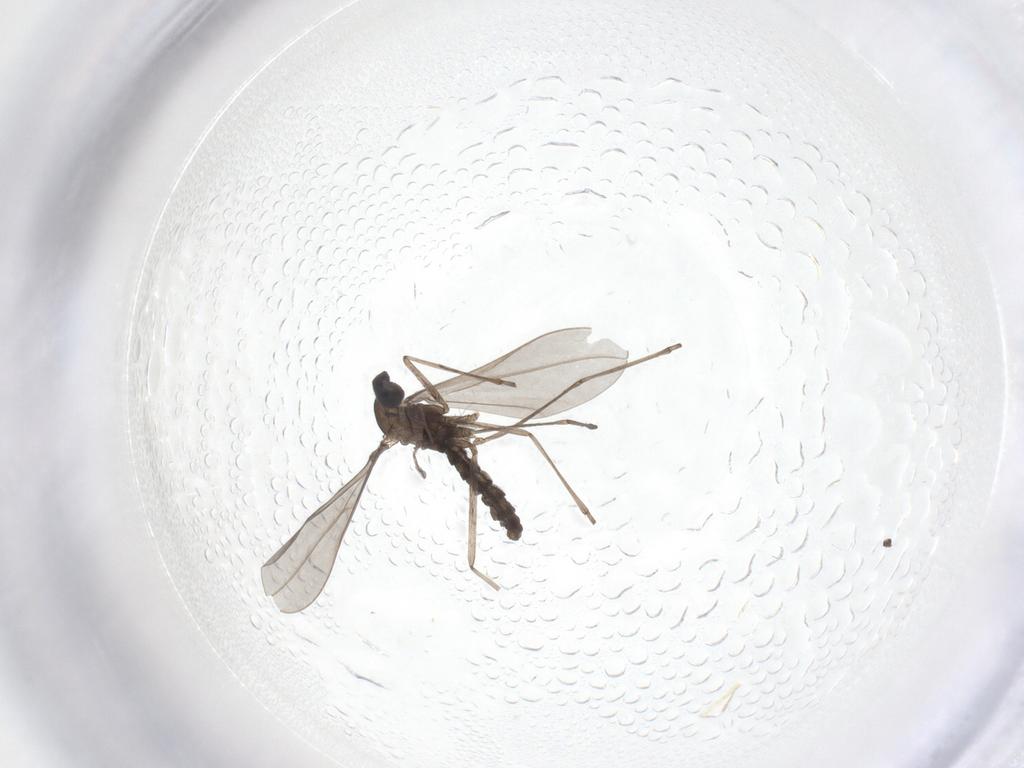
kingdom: Animalia
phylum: Arthropoda
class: Insecta
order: Diptera
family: Cecidomyiidae
